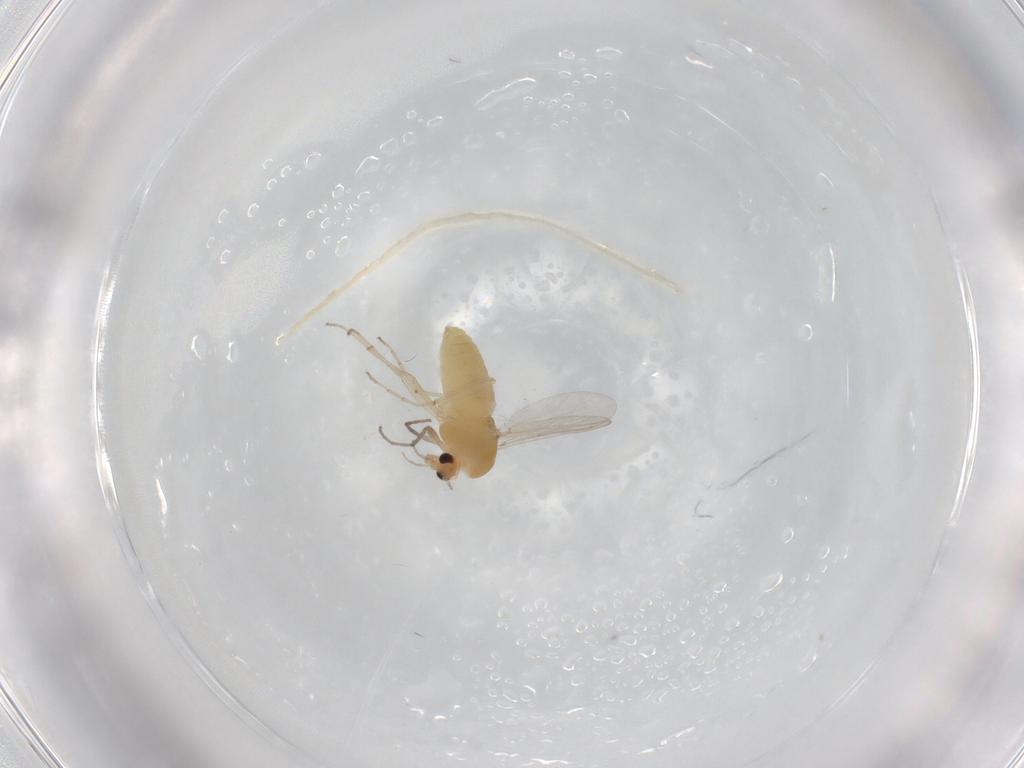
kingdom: Animalia
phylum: Arthropoda
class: Insecta
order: Diptera
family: Chironomidae
